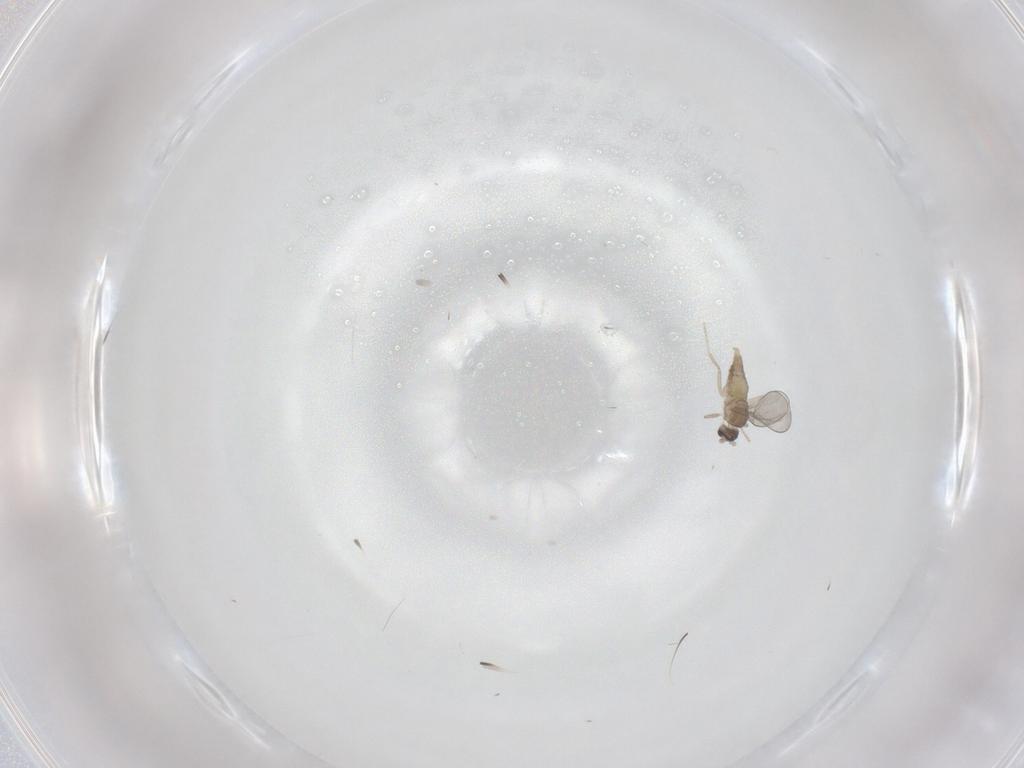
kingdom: Animalia
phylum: Arthropoda
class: Insecta
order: Diptera
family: Cecidomyiidae
